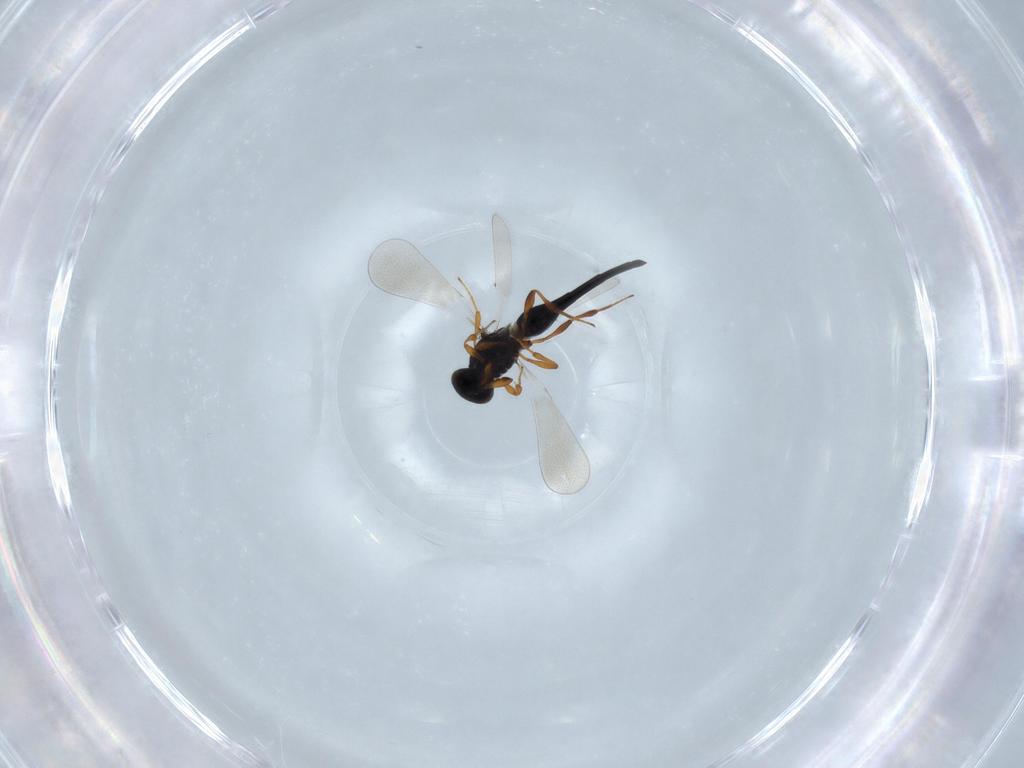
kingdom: Animalia
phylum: Arthropoda
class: Insecta
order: Hymenoptera
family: Platygastridae
